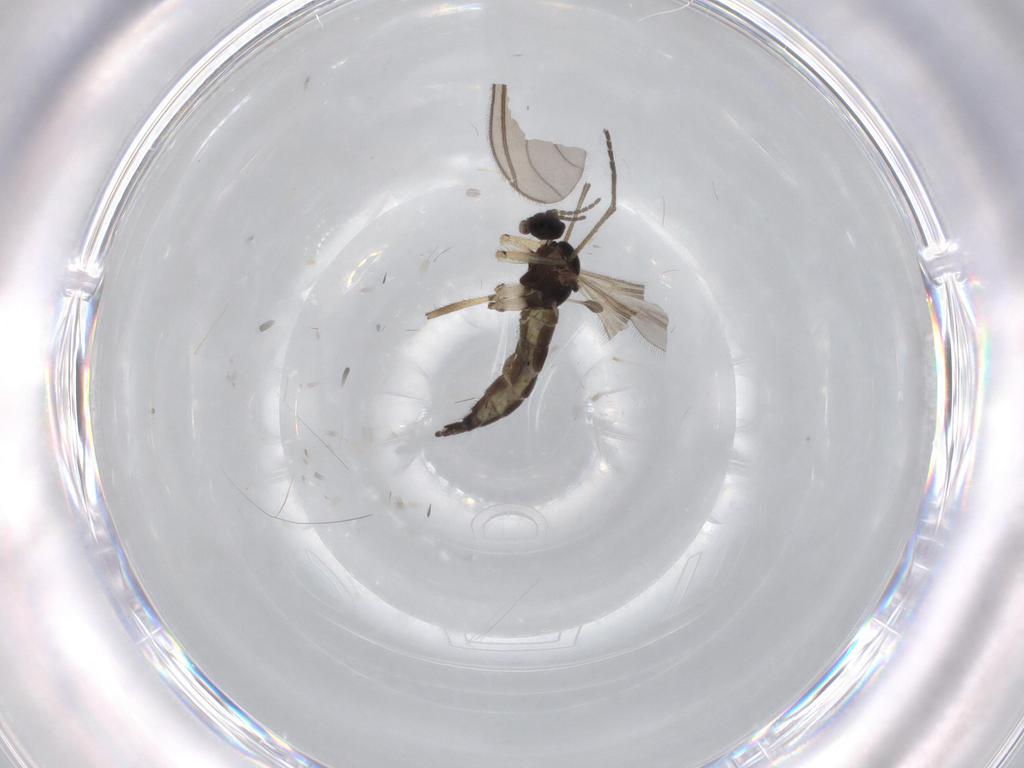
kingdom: Animalia
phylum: Arthropoda
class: Insecta
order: Diptera
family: Sciaridae
